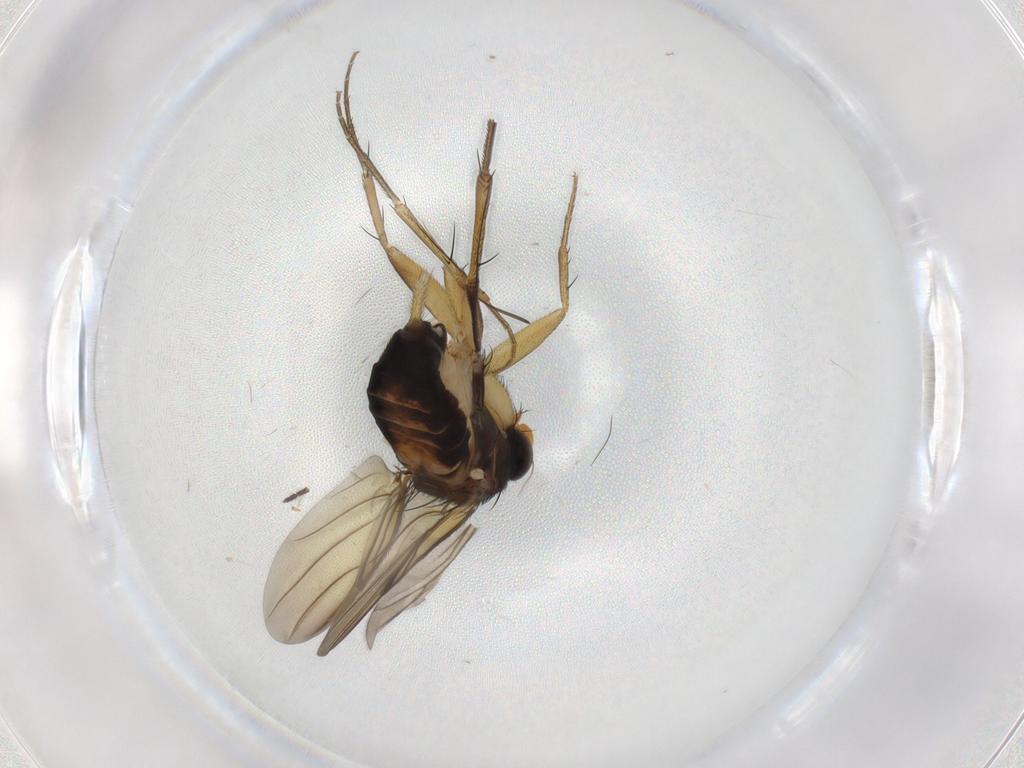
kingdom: Animalia
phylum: Arthropoda
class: Insecta
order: Diptera
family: Phoridae
